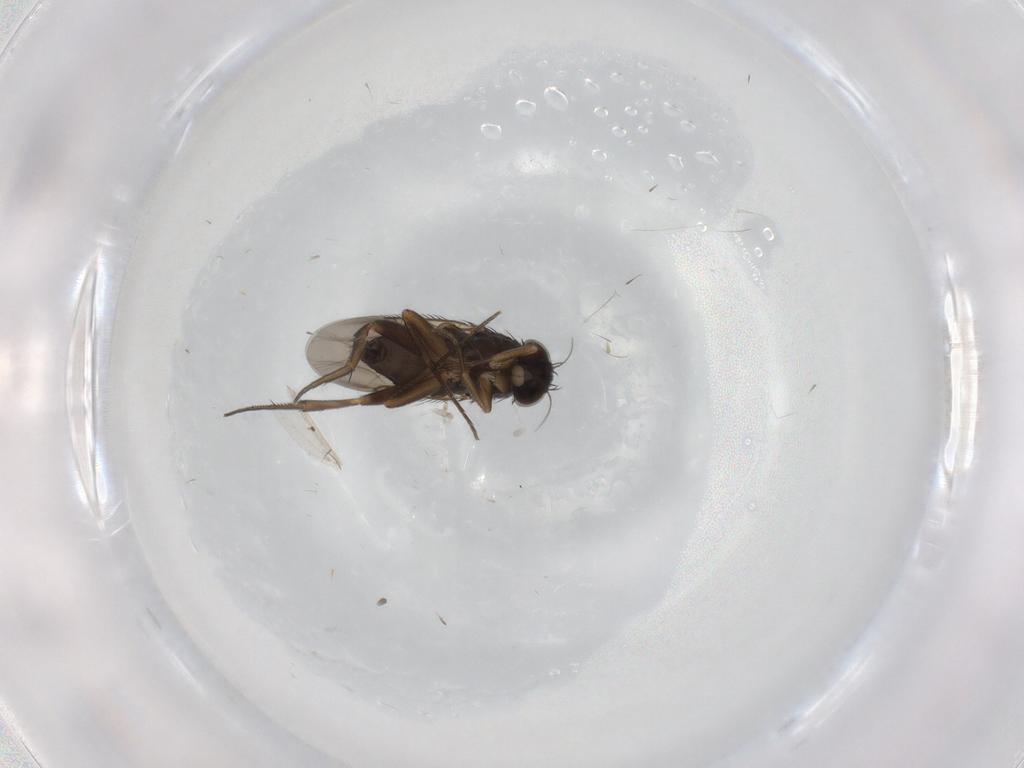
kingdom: Animalia
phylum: Arthropoda
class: Insecta
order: Diptera
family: Phoridae
